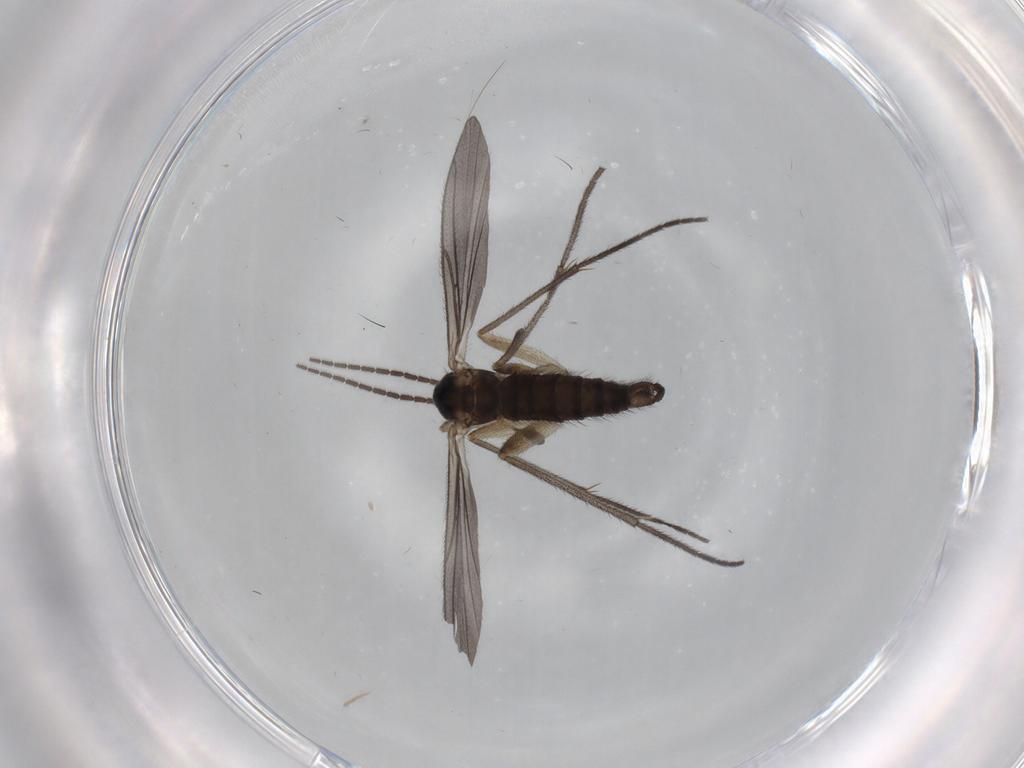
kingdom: Animalia
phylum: Arthropoda
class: Insecta
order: Diptera
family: Sciaridae
